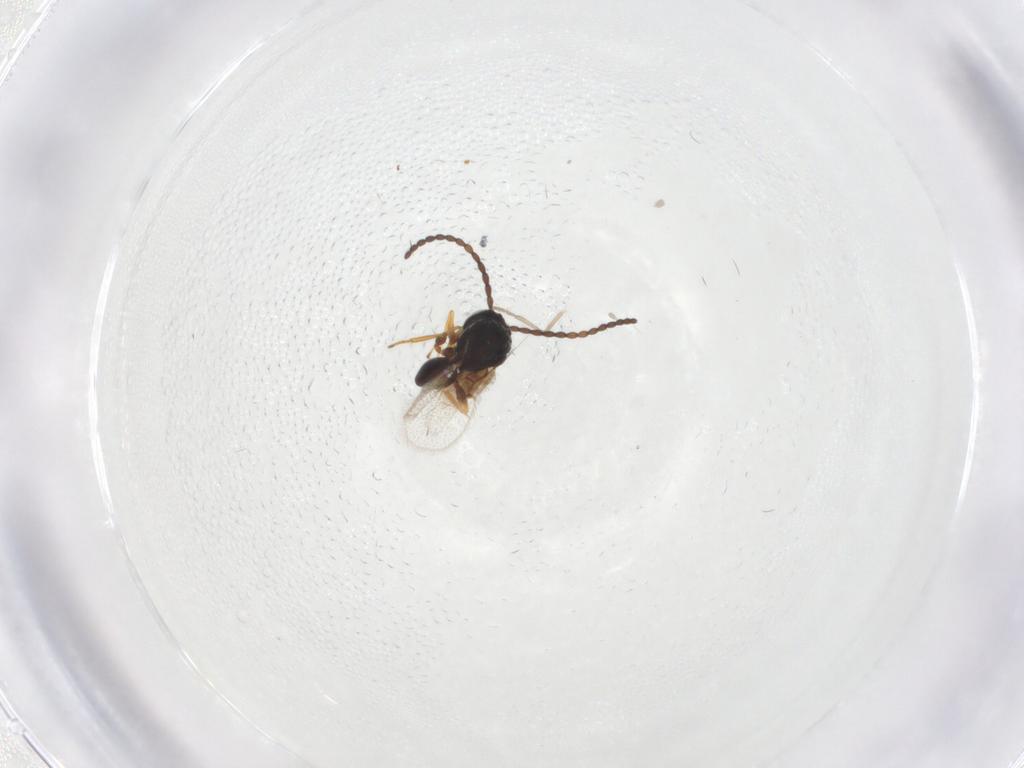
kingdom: Animalia
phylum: Arthropoda
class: Insecta
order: Hymenoptera
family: Figitidae
